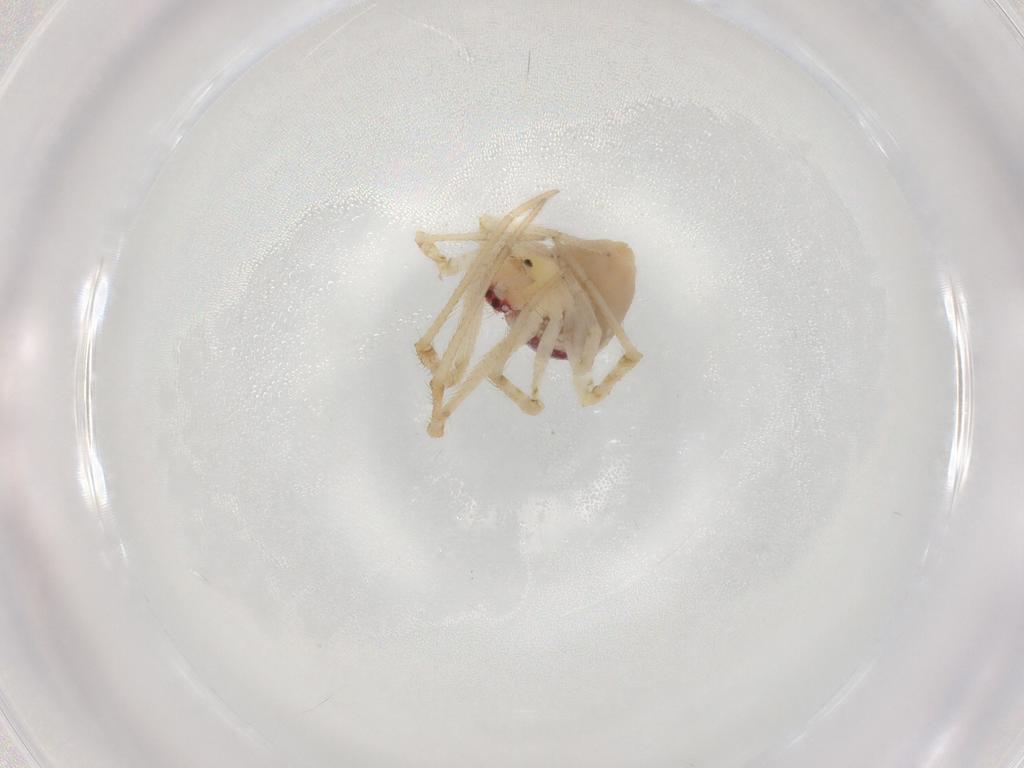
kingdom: Animalia
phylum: Arthropoda
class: Arachnida
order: Araneae
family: Theridiidae
